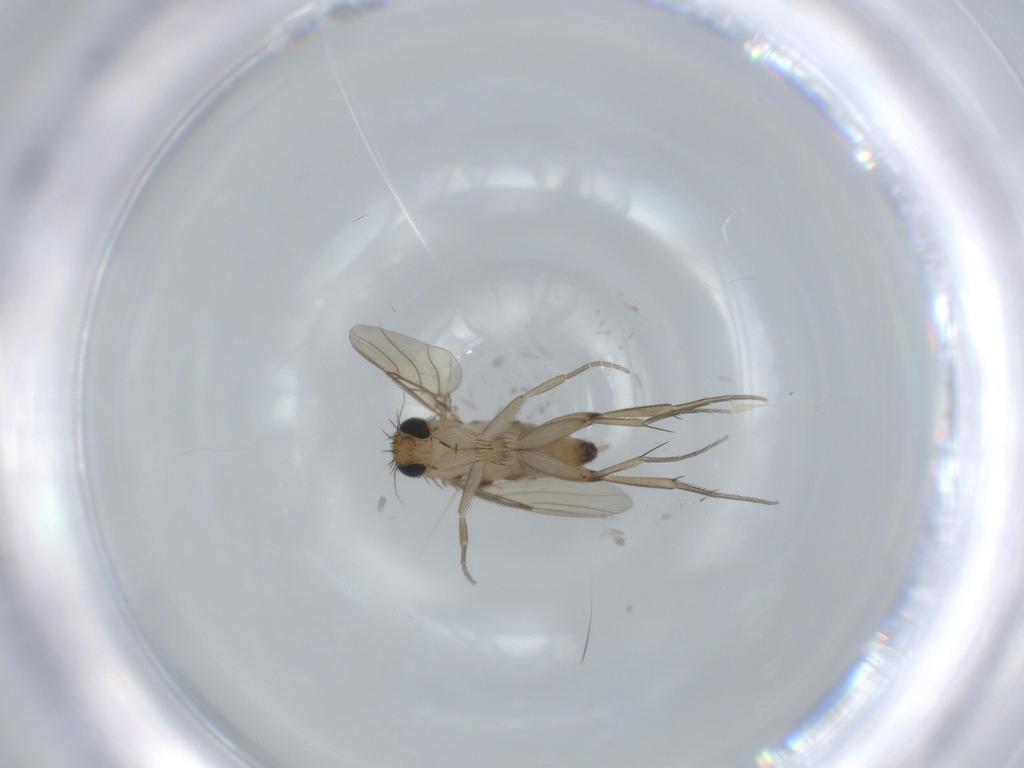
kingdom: Animalia
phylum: Arthropoda
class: Insecta
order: Diptera
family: Phoridae
